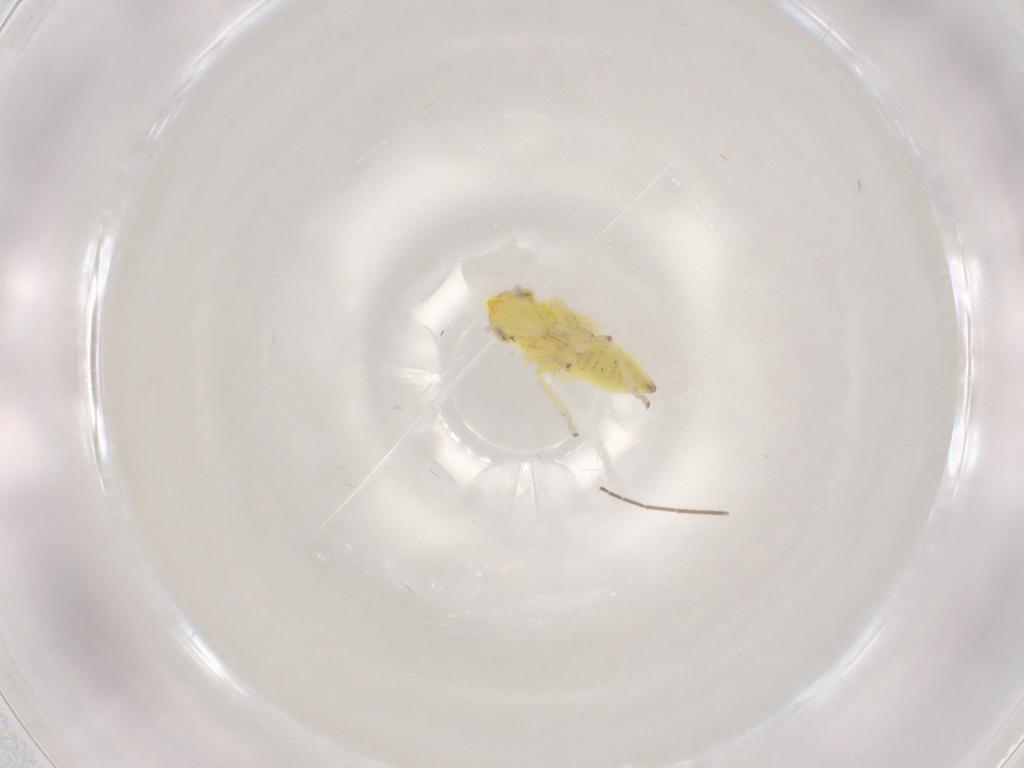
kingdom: Animalia
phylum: Arthropoda
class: Insecta
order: Hemiptera
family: Cicadellidae
